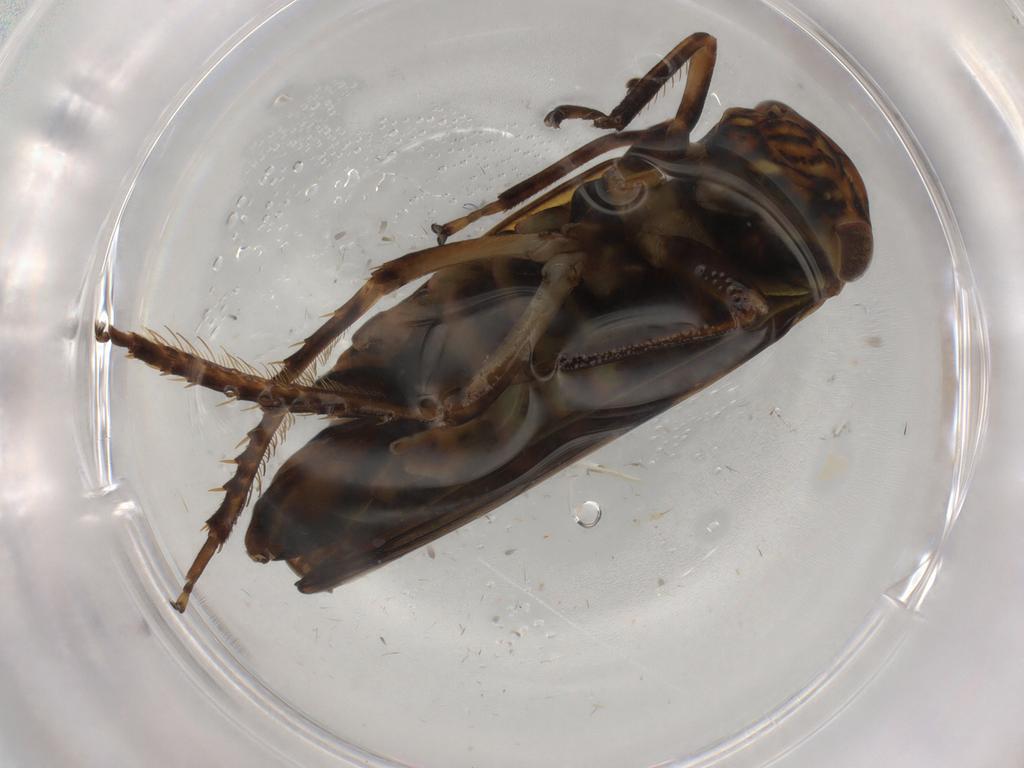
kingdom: Animalia
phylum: Arthropoda
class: Insecta
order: Hemiptera
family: Cicadellidae
